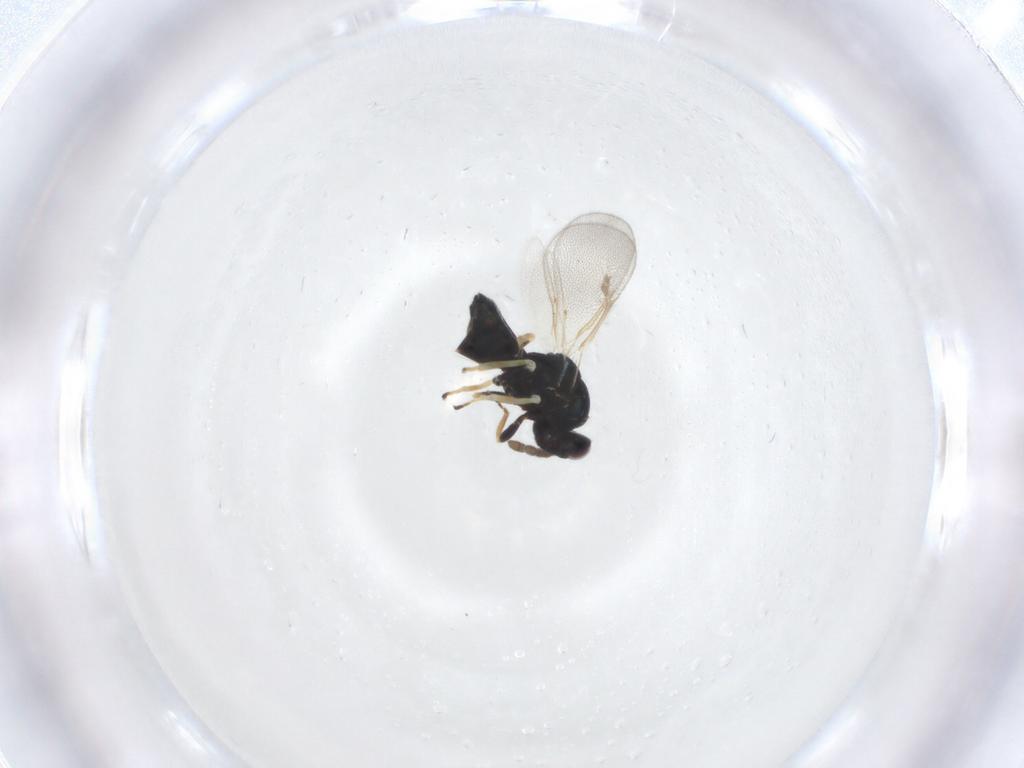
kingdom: Animalia
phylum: Arthropoda
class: Insecta
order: Hymenoptera
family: Eulophidae
